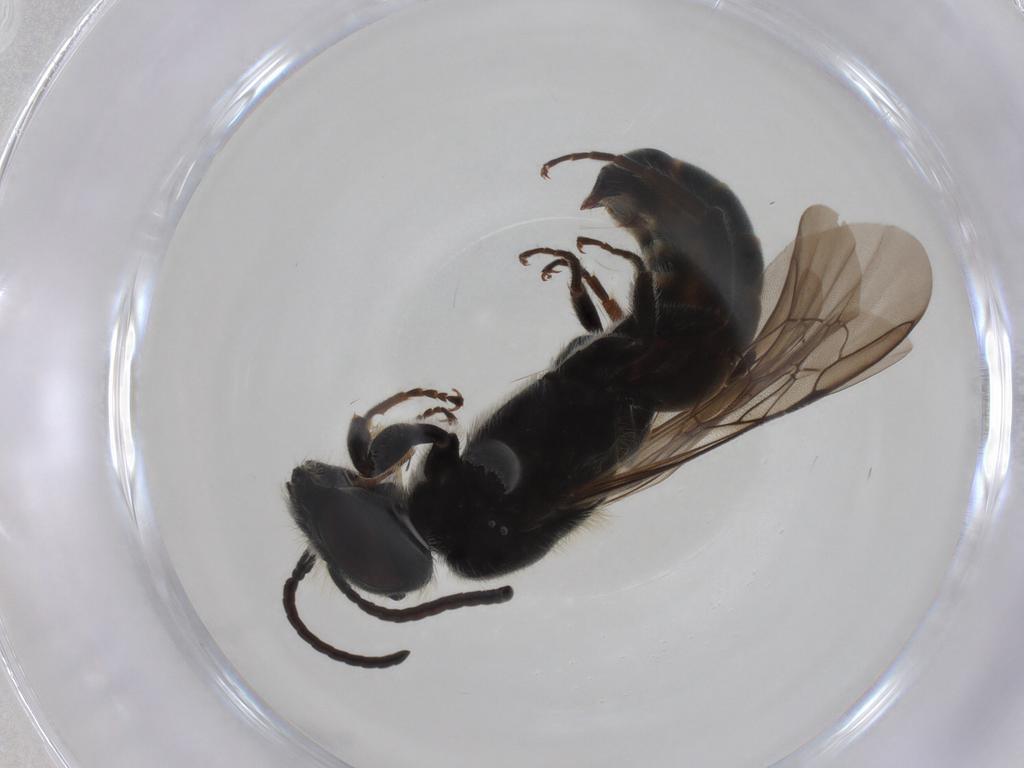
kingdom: Animalia
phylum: Arthropoda
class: Insecta
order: Hymenoptera
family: Megachilidae
